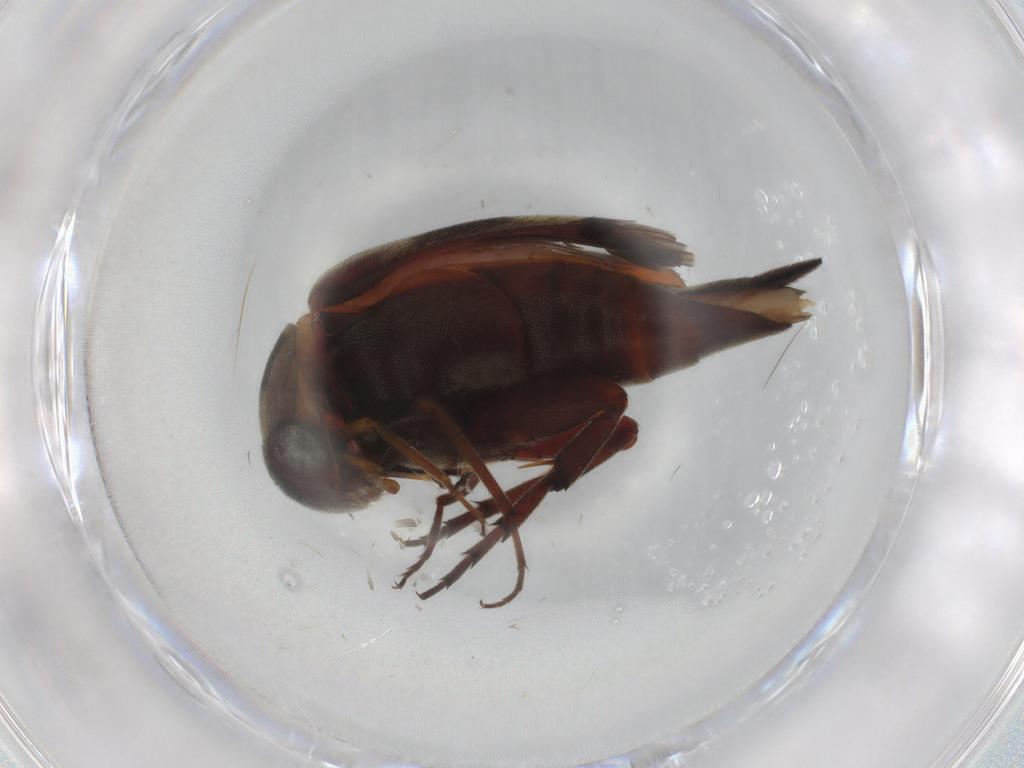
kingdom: Animalia
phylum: Arthropoda
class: Insecta
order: Coleoptera
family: Mordellidae
